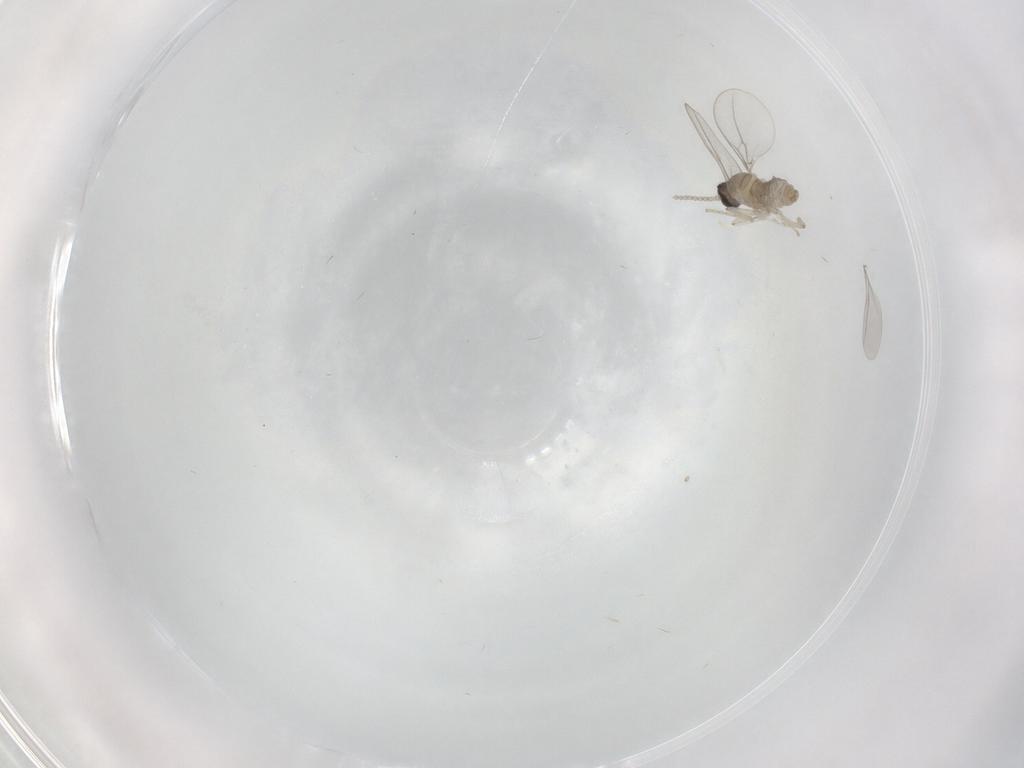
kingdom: Animalia
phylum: Arthropoda
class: Insecta
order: Diptera
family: Cecidomyiidae
